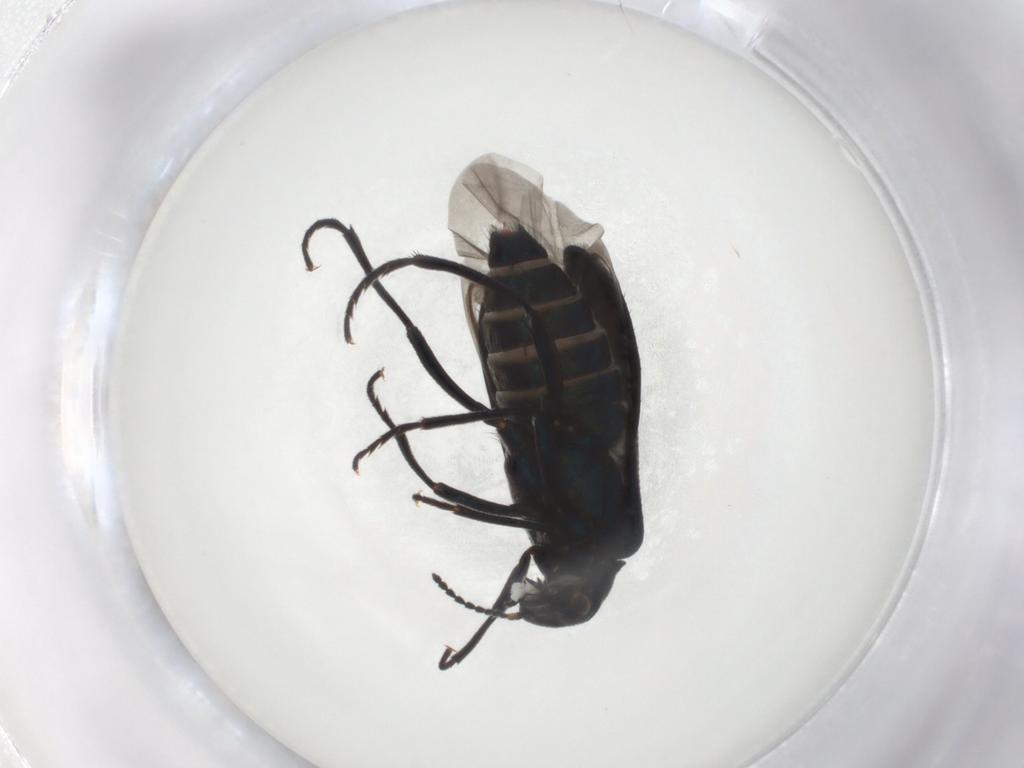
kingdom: Animalia
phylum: Arthropoda
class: Insecta
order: Coleoptera
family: Melyridae
